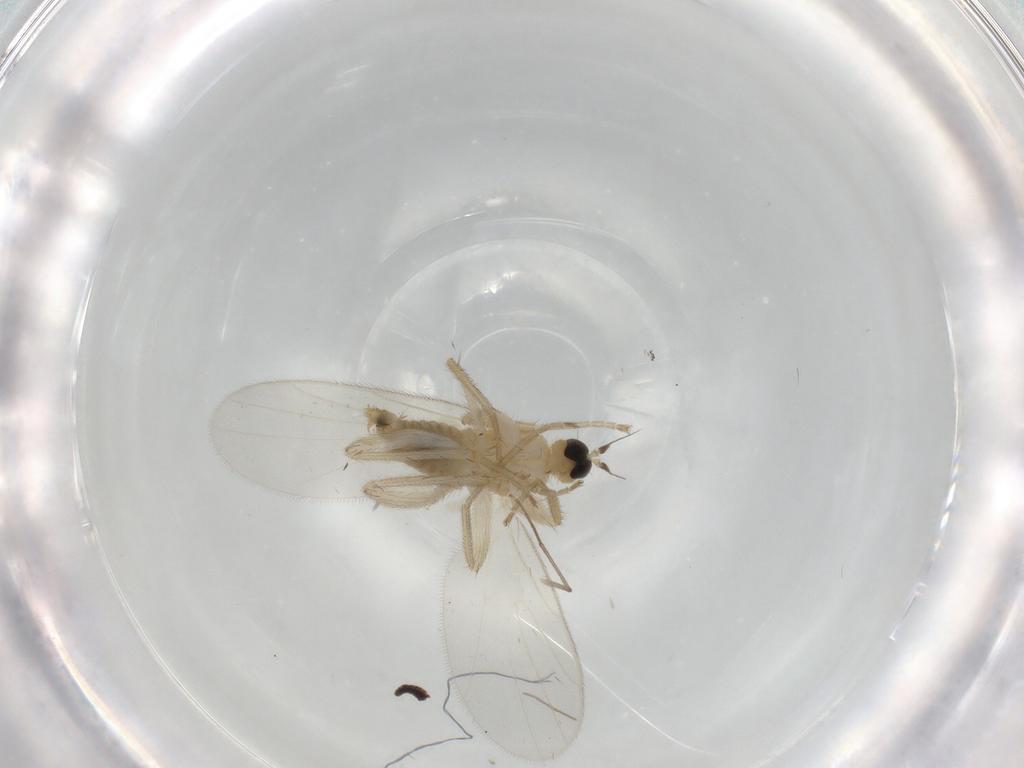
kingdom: Animalia
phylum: Arthropoda
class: Insecta
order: Diptera
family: Hybotidae
